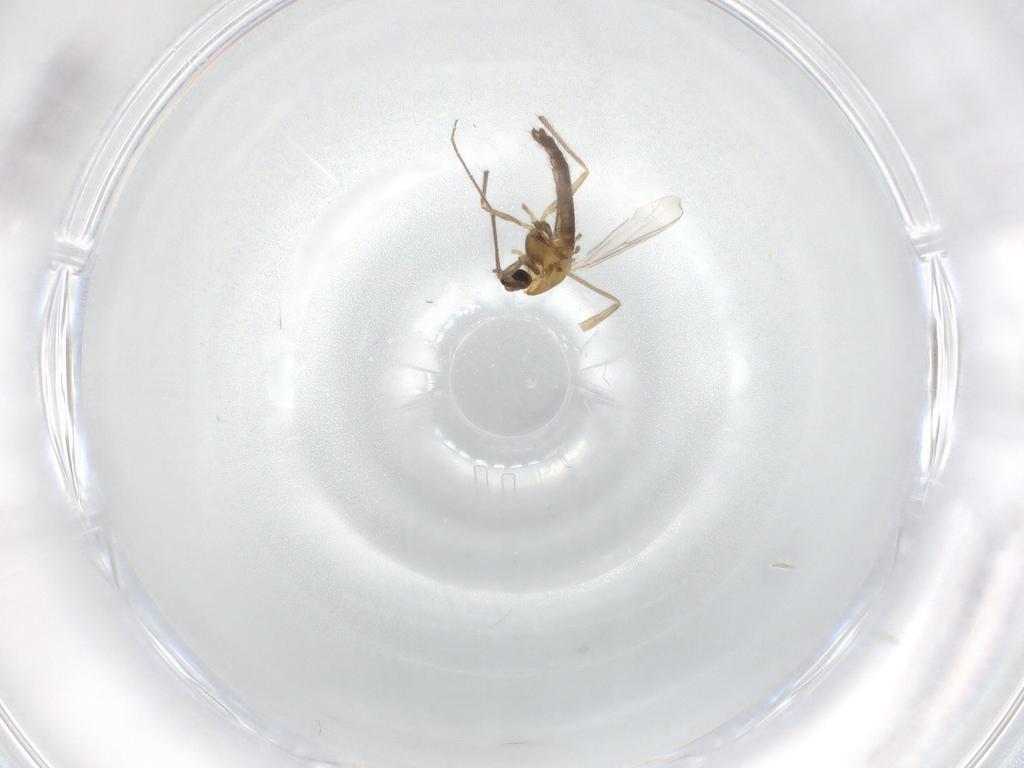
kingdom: Animalia
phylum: Arthropoda
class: Insecta
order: Diptera
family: Chironomidae
